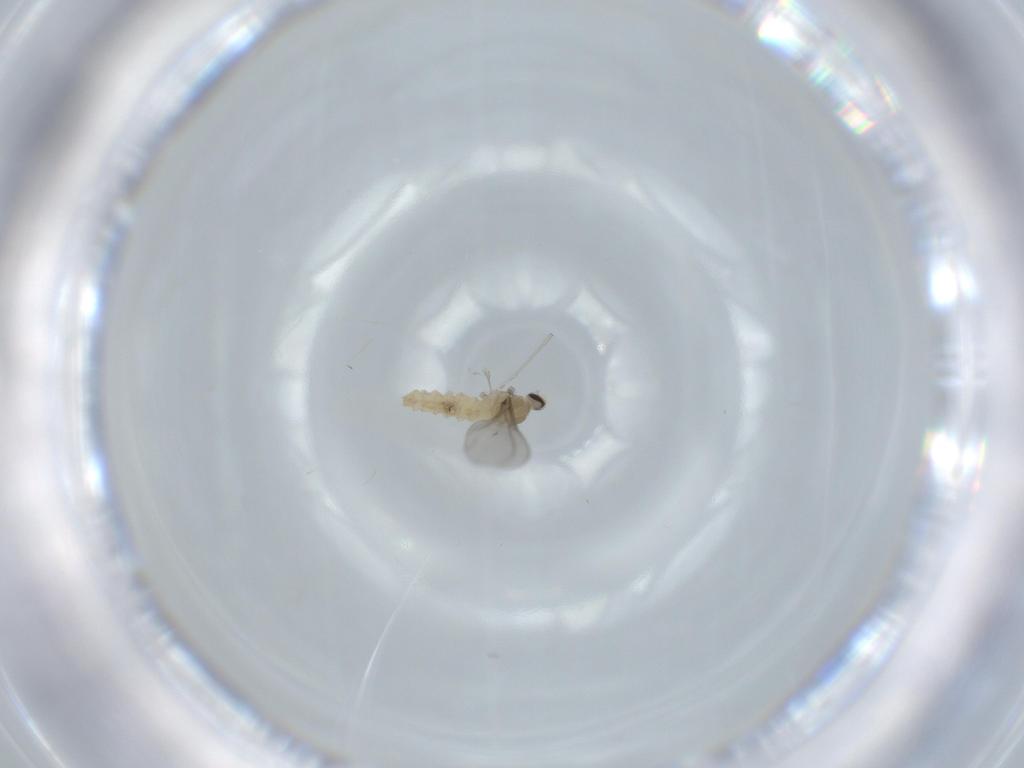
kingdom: Animalia
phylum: Arthropoda
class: Insecta
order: Diptera
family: Cecidomyiidae
